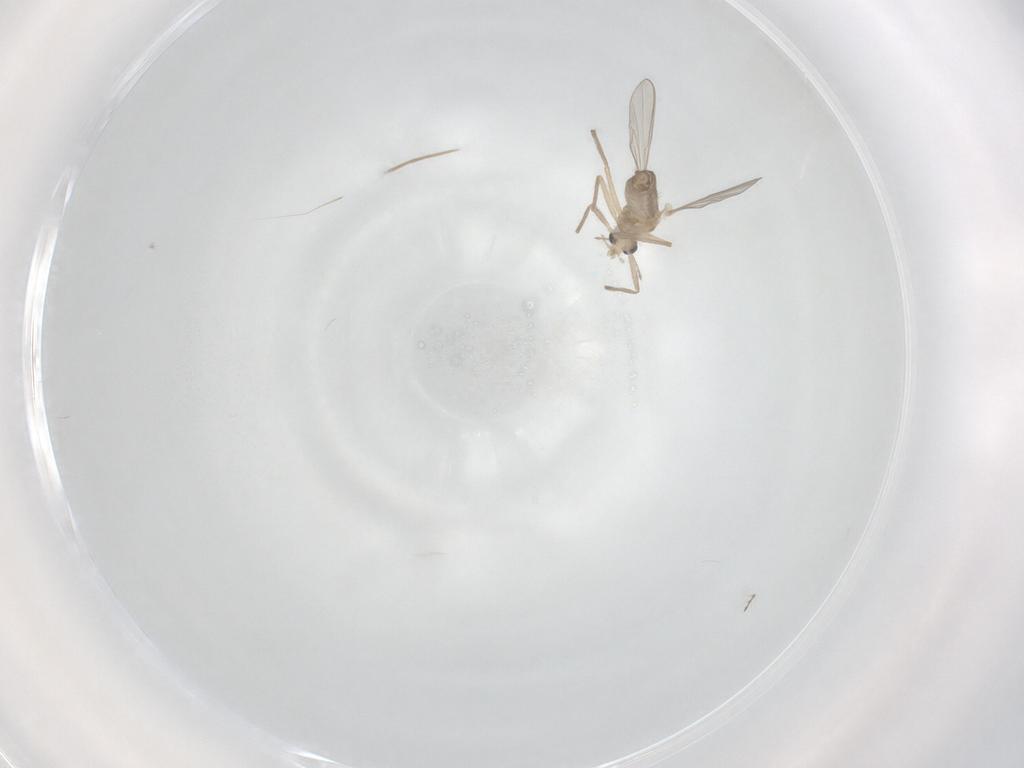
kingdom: Animalia
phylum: Arthropoda
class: Insecta
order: Diptera
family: Chironomidae
